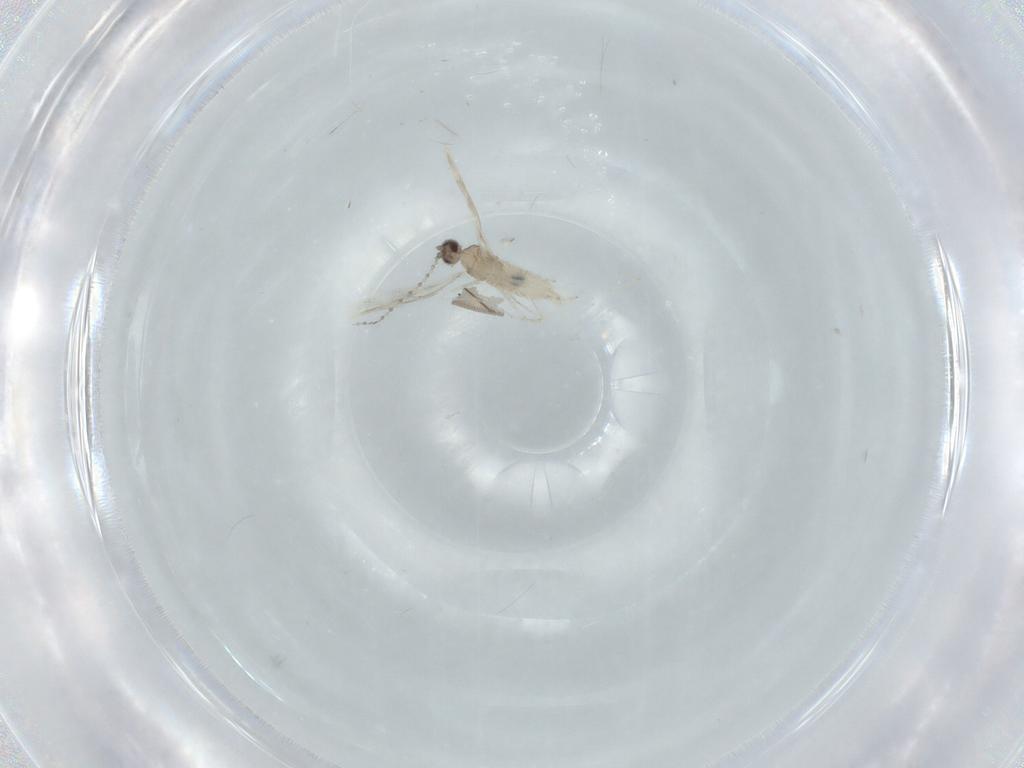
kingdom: Animalia
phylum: Arthropoda
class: Insecta
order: Diptera
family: Cecidomyiidae
